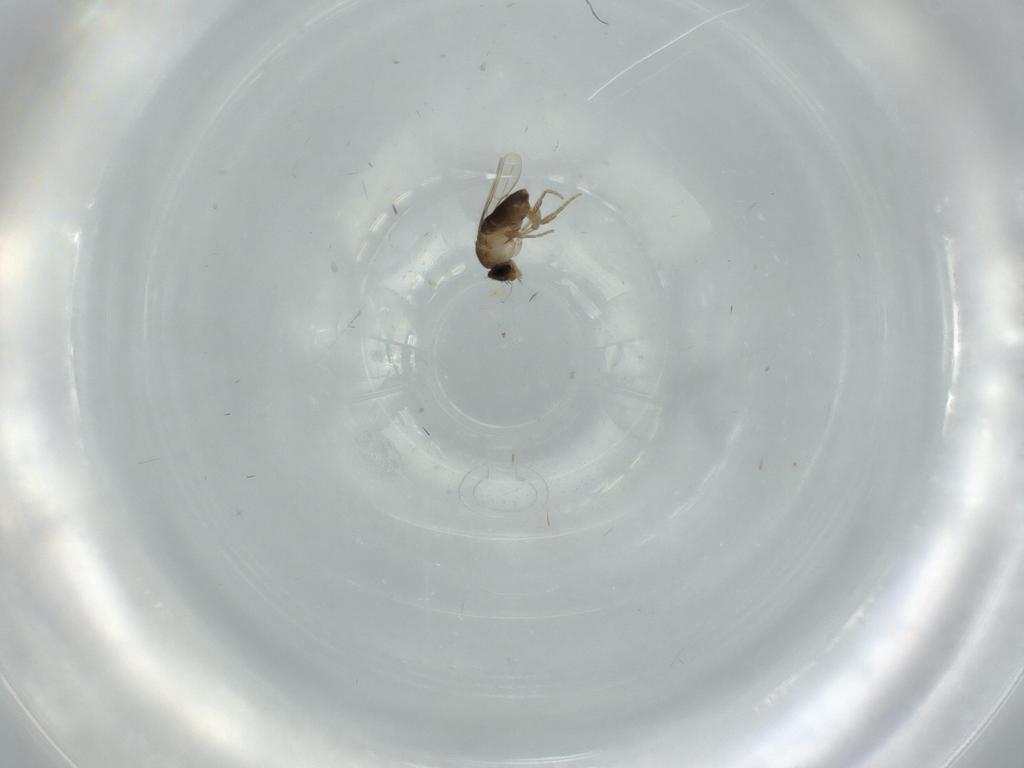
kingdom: Animalia
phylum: Arthropoda
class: Insecta
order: Diptera
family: Phoridae
